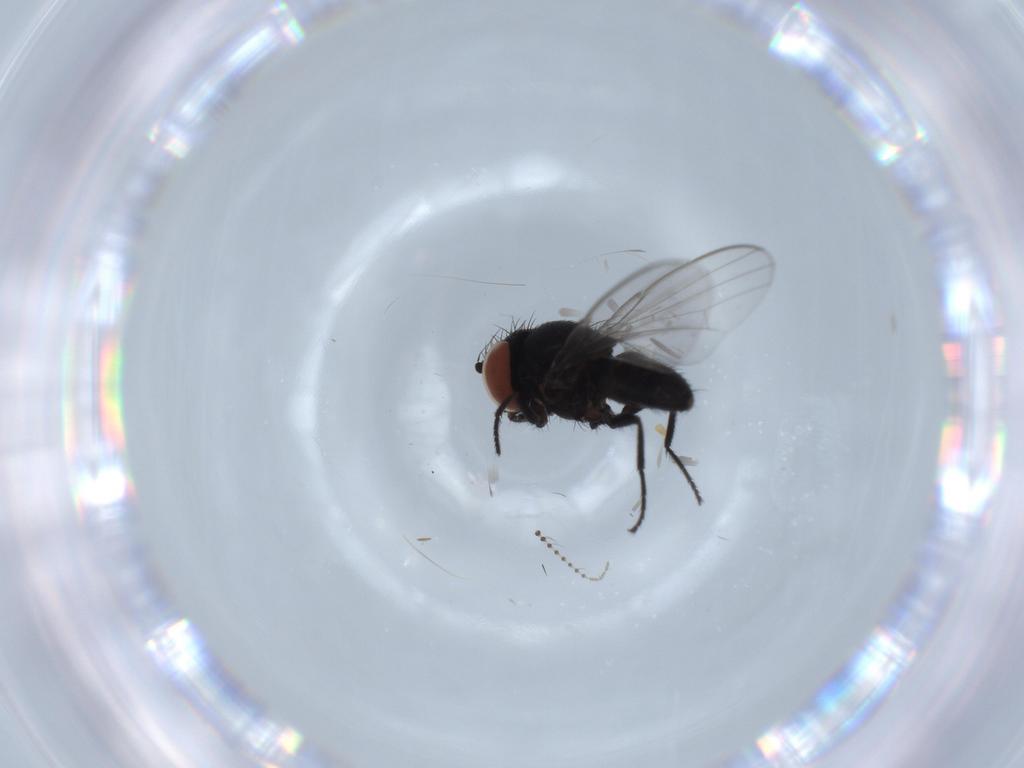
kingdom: Animalia
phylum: Arthropoda
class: Insecta
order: Diptera
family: Milichiidae
